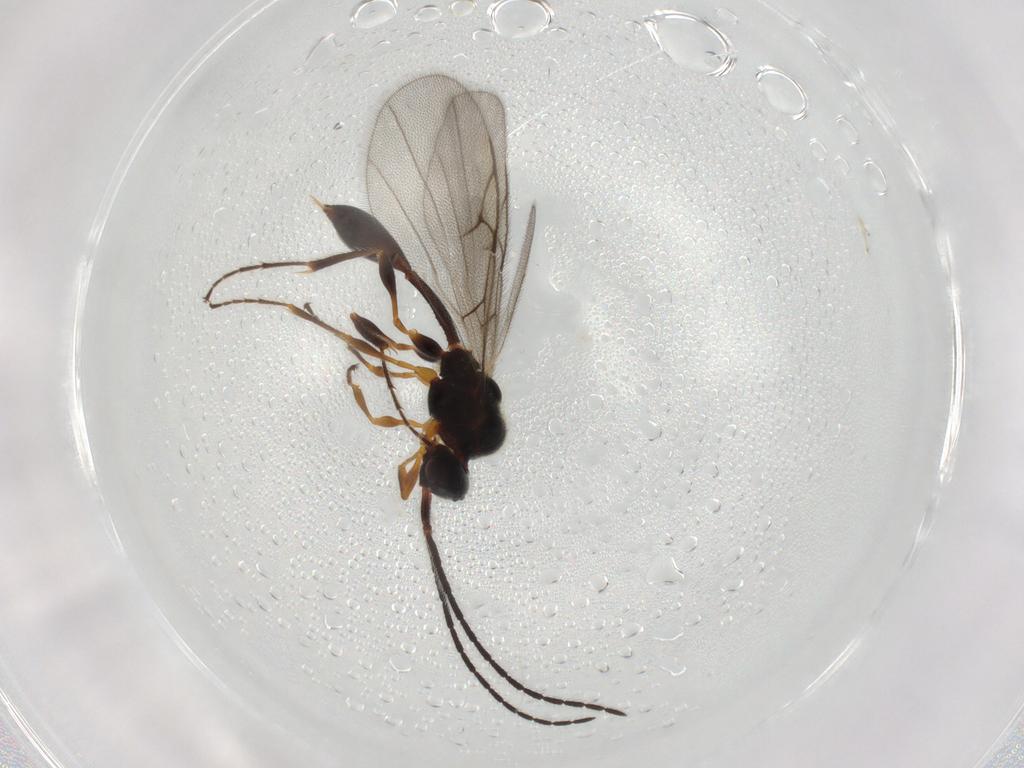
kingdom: Animalia
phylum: Arthropoda
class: Insecta
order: Hymenoptera
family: Diapriidae
